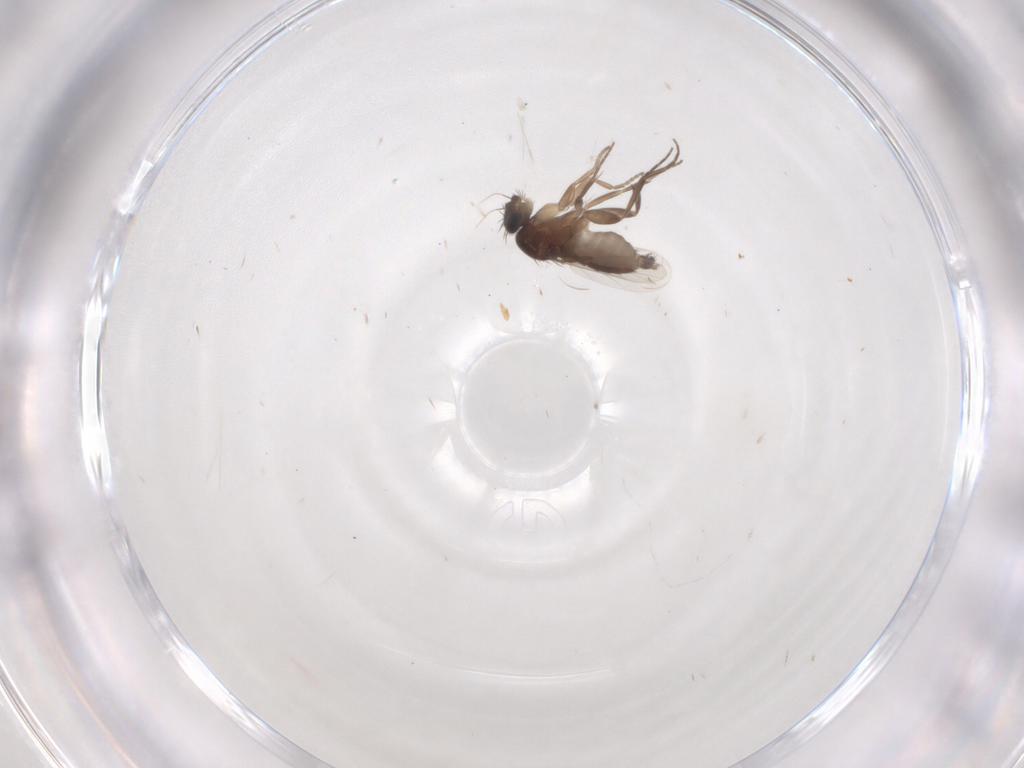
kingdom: Animalia
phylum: Arthropoda
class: Insecta
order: Diptera
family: Phoridae
